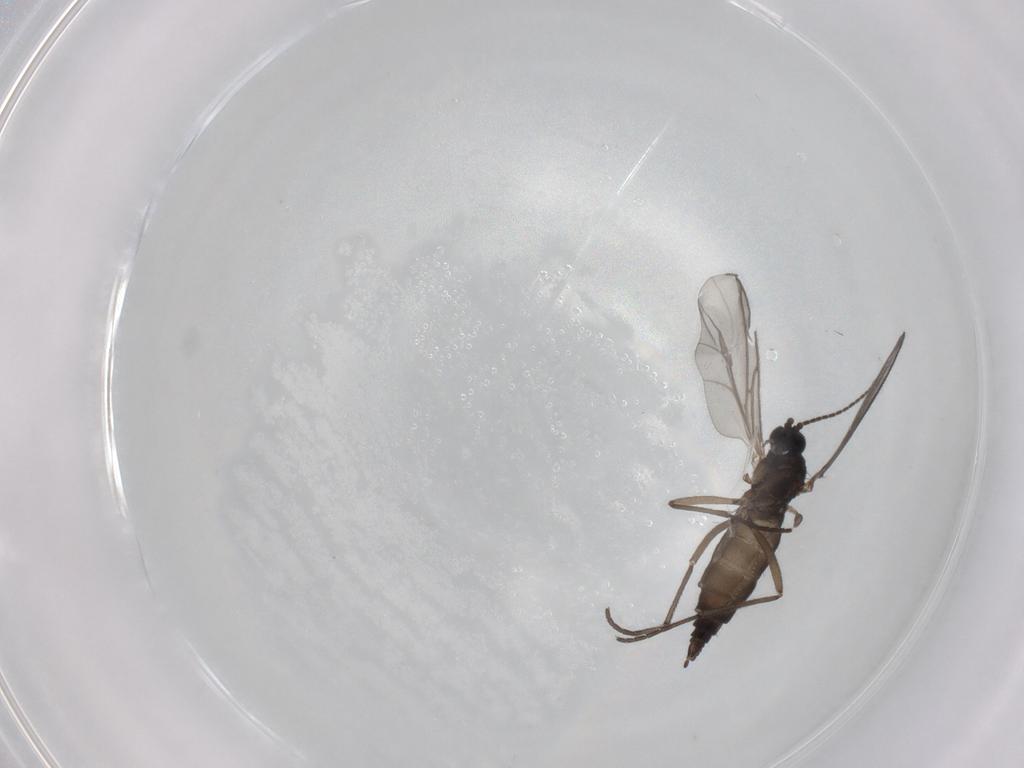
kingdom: Animalia
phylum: Arthropoda
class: Insecta
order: Diptera
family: Sciaridae
